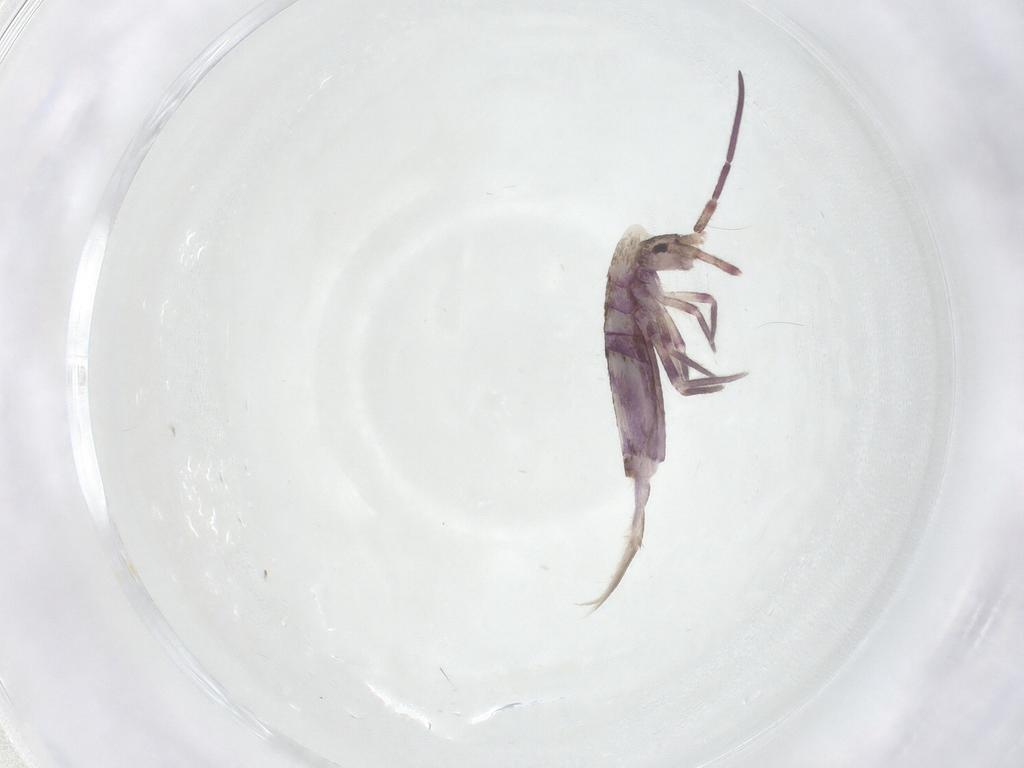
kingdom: Animalia
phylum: Arthropoda
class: Collembola
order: Entomobryomorpha
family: Entomobryidae
